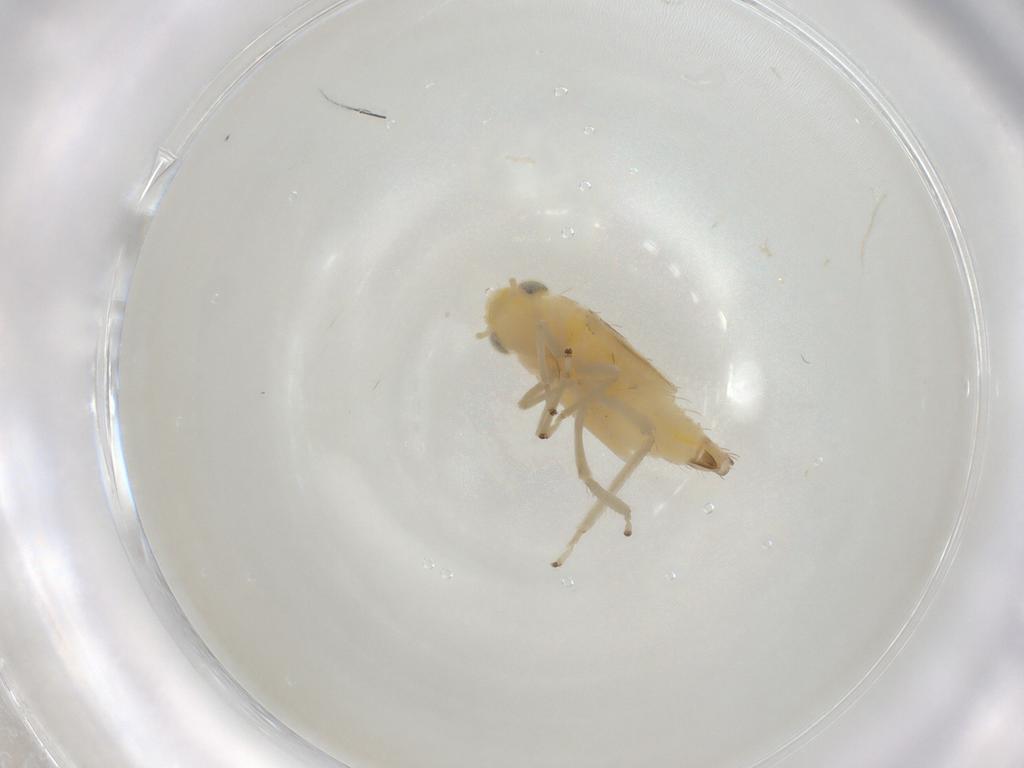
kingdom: Animalia
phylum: Arthropoda
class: Insecta
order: Hemiptera
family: Cicadellidae
